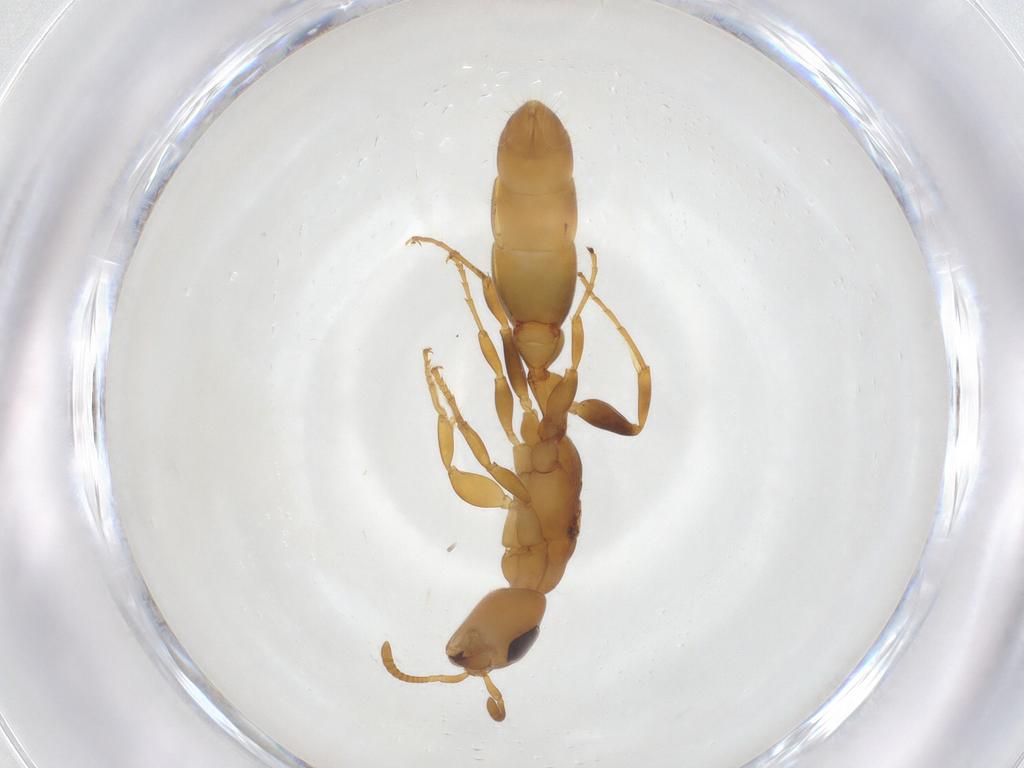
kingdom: Animalia
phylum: Arthropoda
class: Insecta
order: Hymenoptera
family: Formicidae
